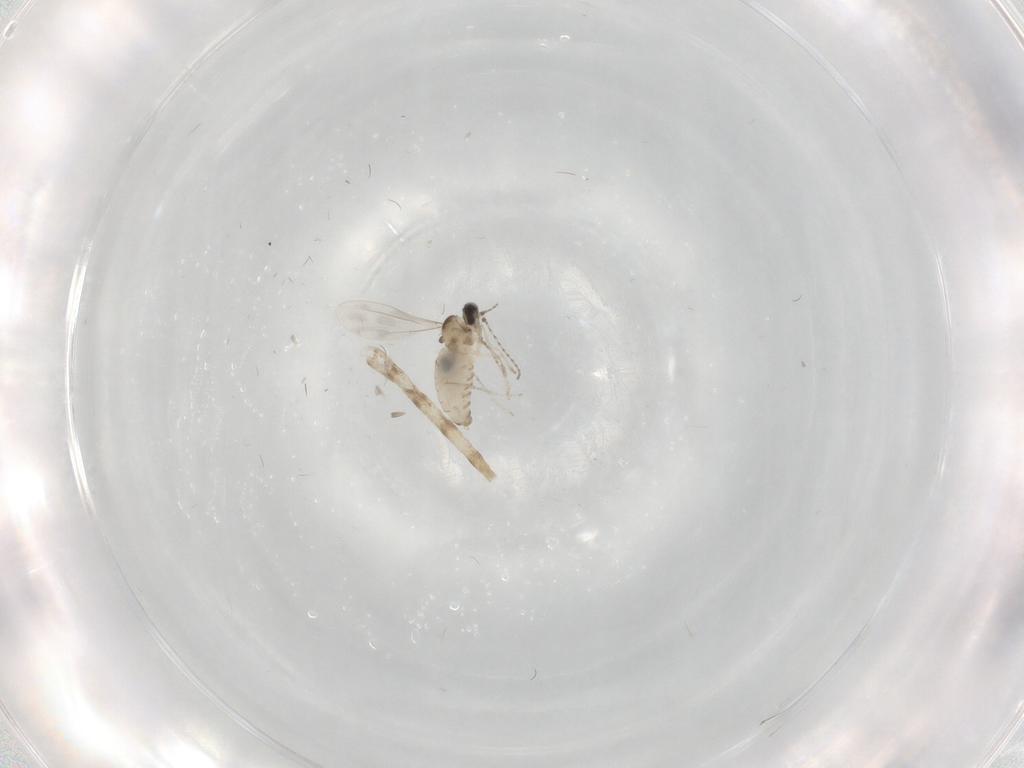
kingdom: Animalia
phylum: Arthropoda
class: Insecta
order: Diptera
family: Cecidomyiidae
